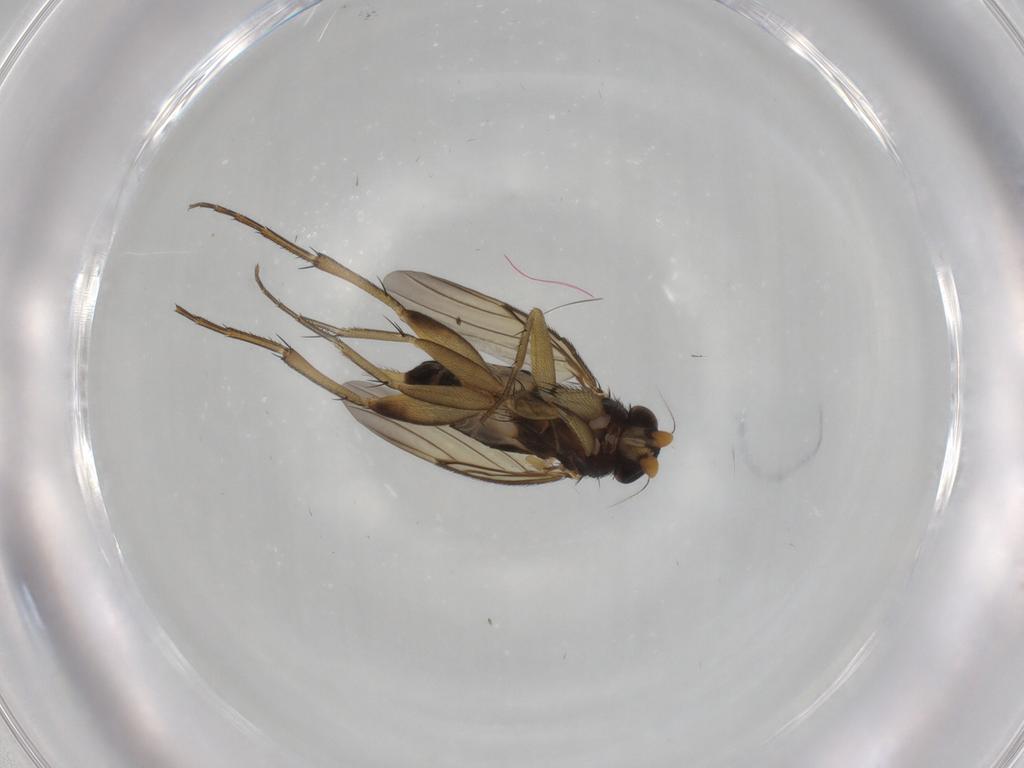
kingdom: Animalia
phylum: Arthropoda
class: Insecta
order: Diptera
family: Phoridae
